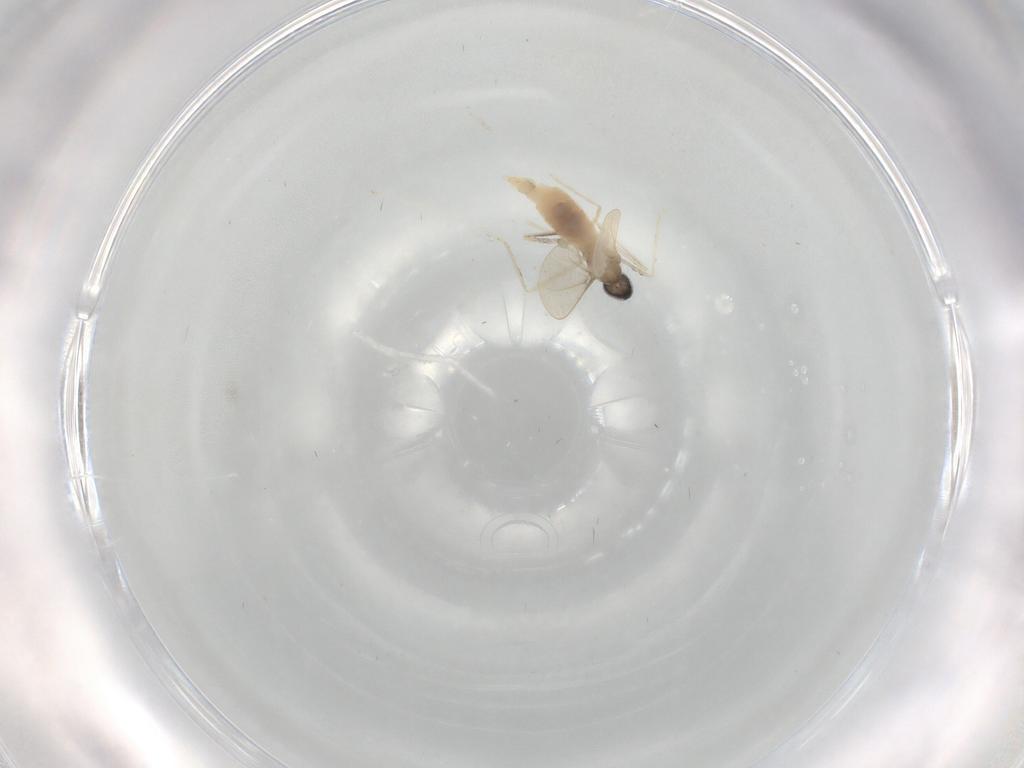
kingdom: Animalia
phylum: Arthropoda
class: Insecta
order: Diptera
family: Cecidomyiidae
